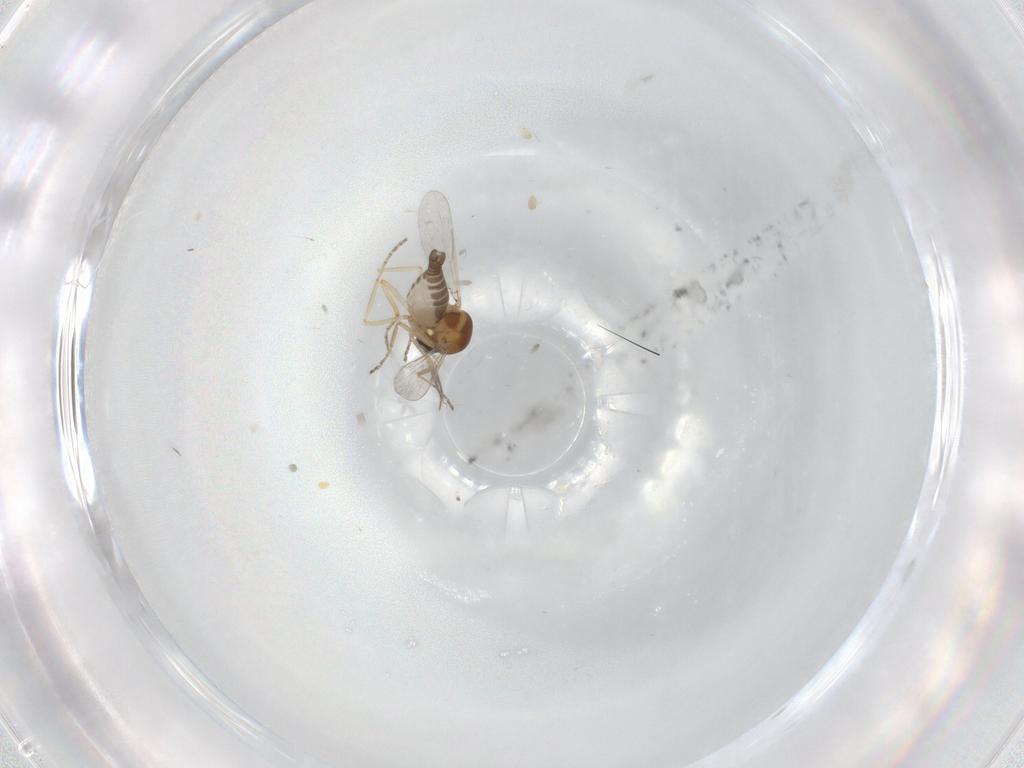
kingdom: Animalia
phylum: Arthropoda
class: Insecta
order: Diptera
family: Ceratopogonidae
